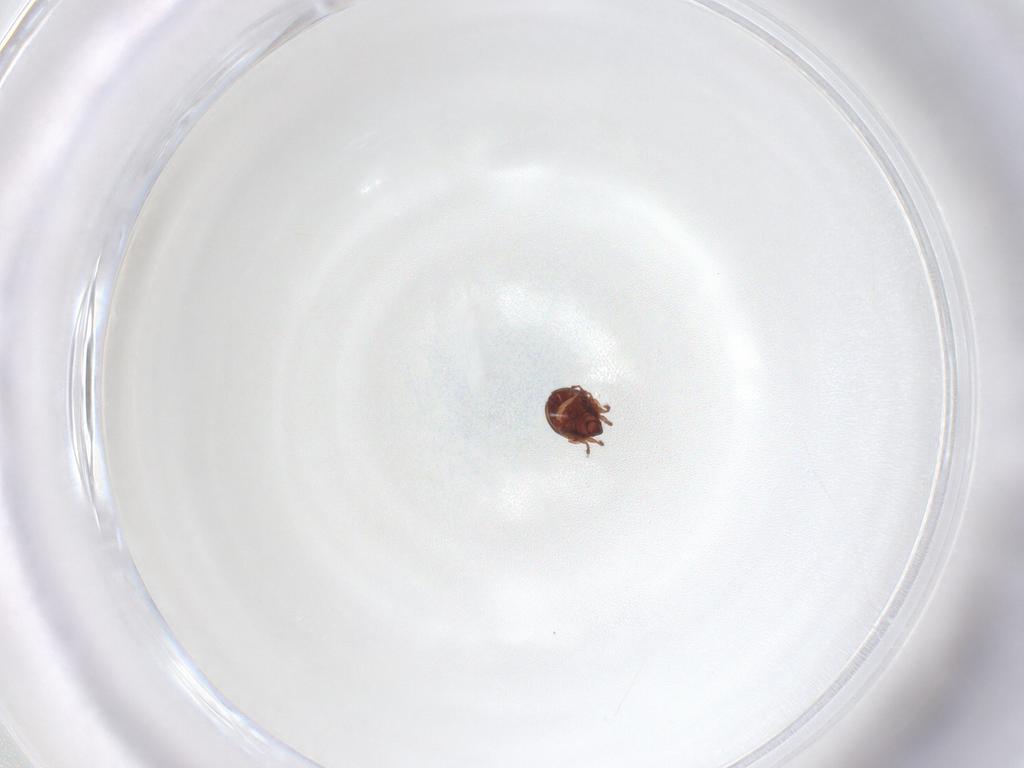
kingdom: Animalia
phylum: Arthropoda
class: Arachnida
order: Sarcoptiformes
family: Humerobatidae
